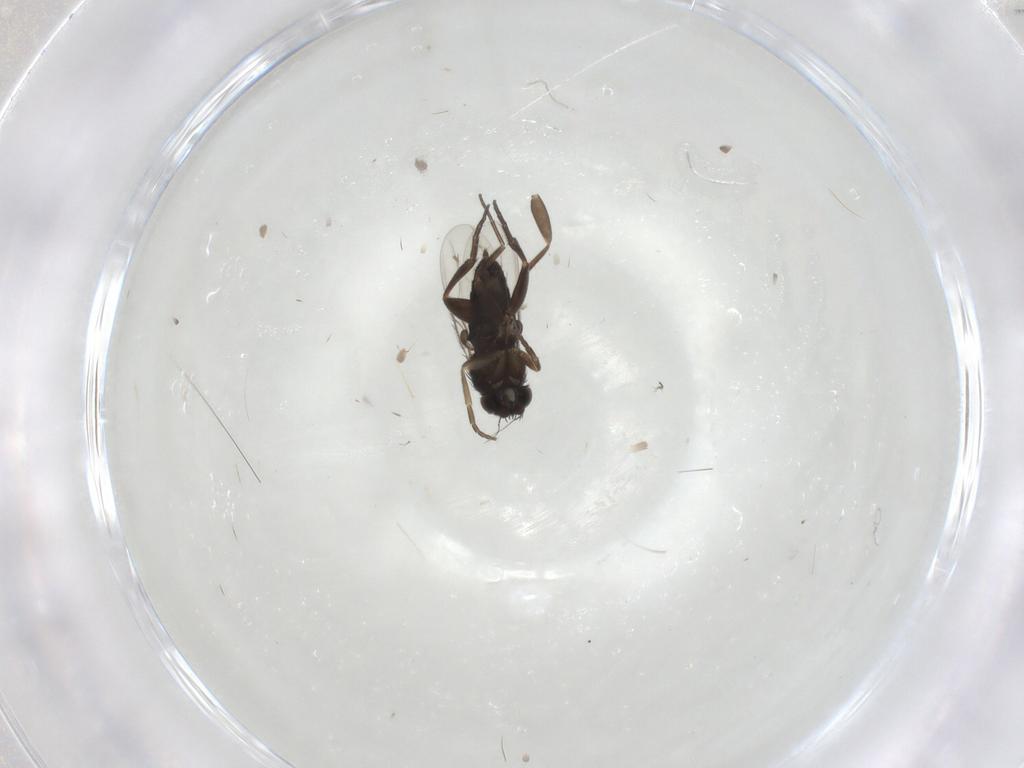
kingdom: Animalia
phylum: Arthropoda
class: Insecta
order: Diptera
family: Phoridae
